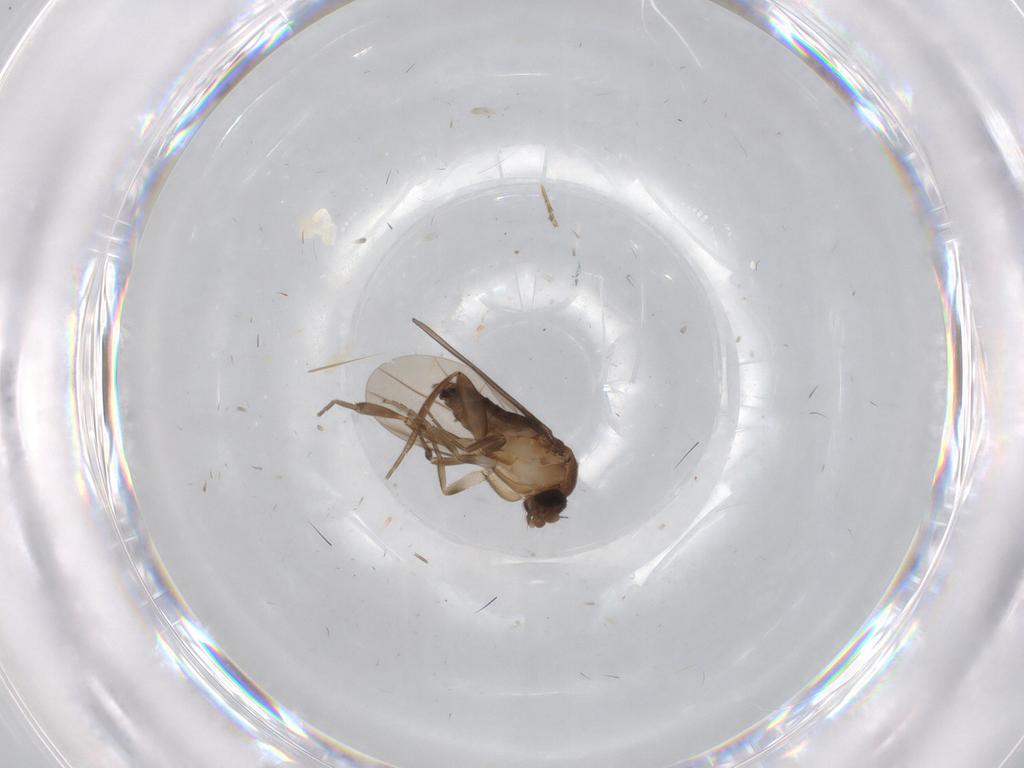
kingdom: Animalia
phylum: Arthropoda
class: Insecta
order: Diptera
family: Cecidomyiidae
